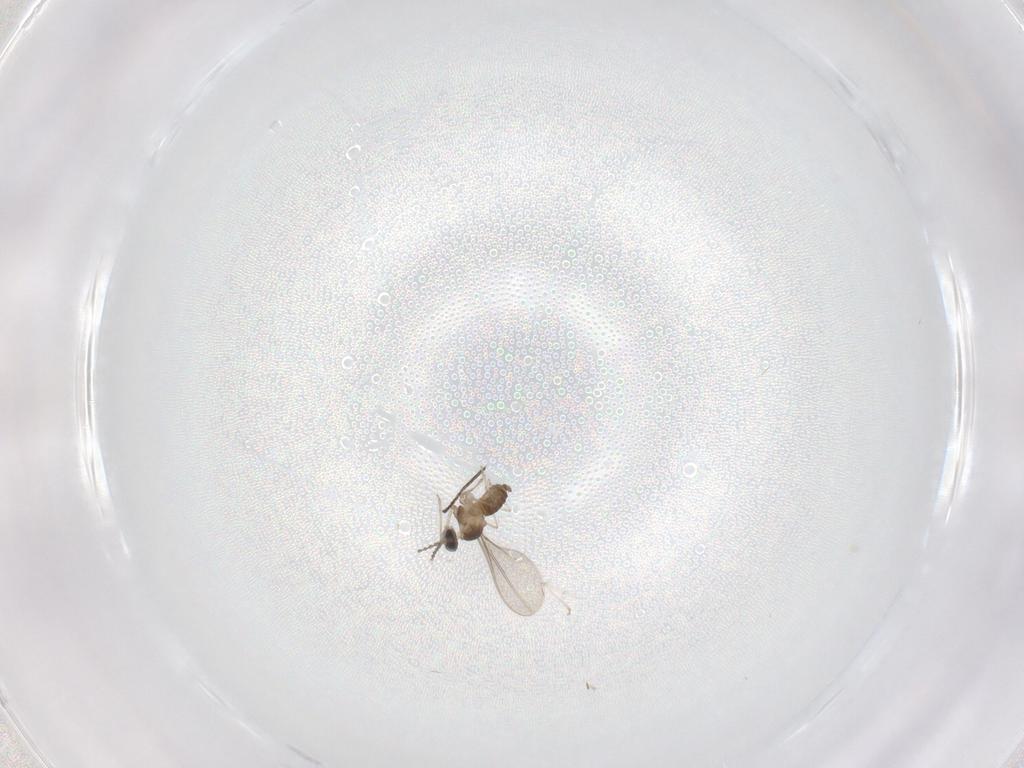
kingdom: Animalia
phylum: Arthropoda
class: Insecta
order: Diptera
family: Cecidomyiidae
